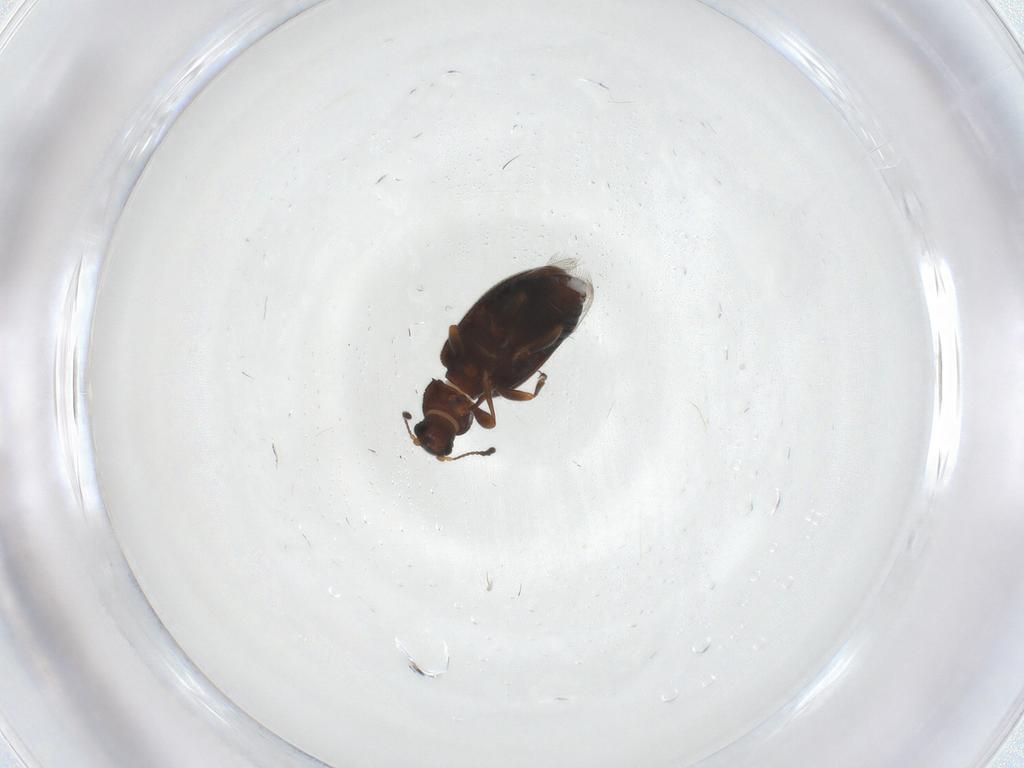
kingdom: Animalia
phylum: Arthropoda
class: Insecta
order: Coleoptera
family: Latridiidae
